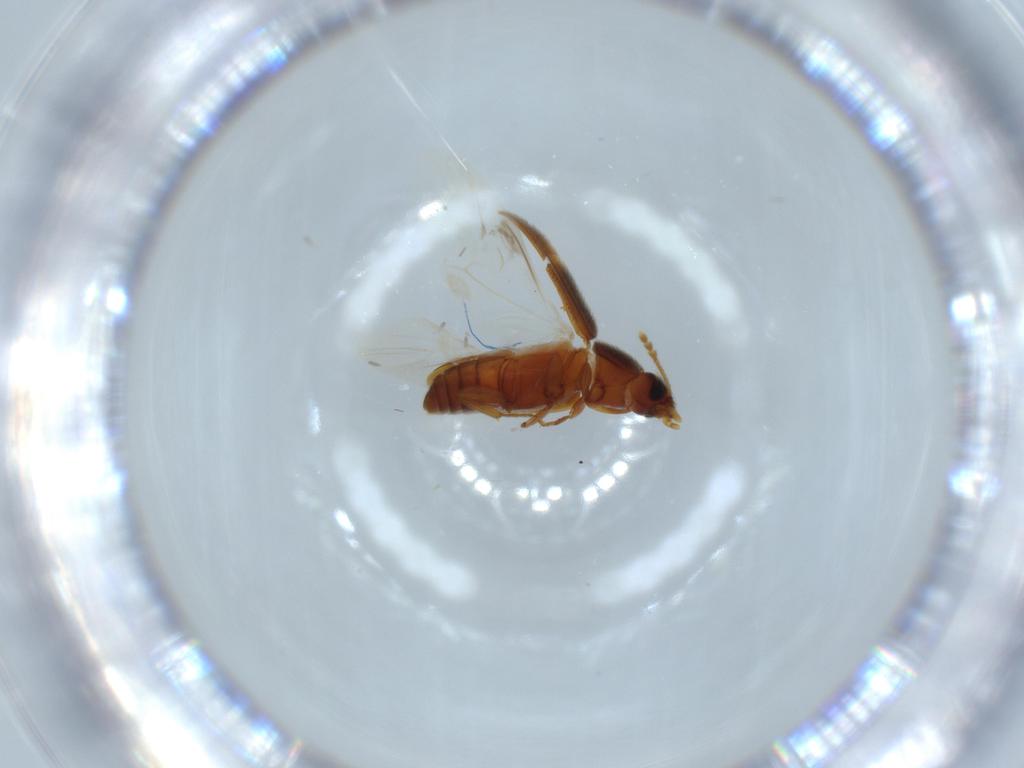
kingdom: Animalia
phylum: Arthropoda
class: Insecta
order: Coleoptera
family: Mycetophagidae
